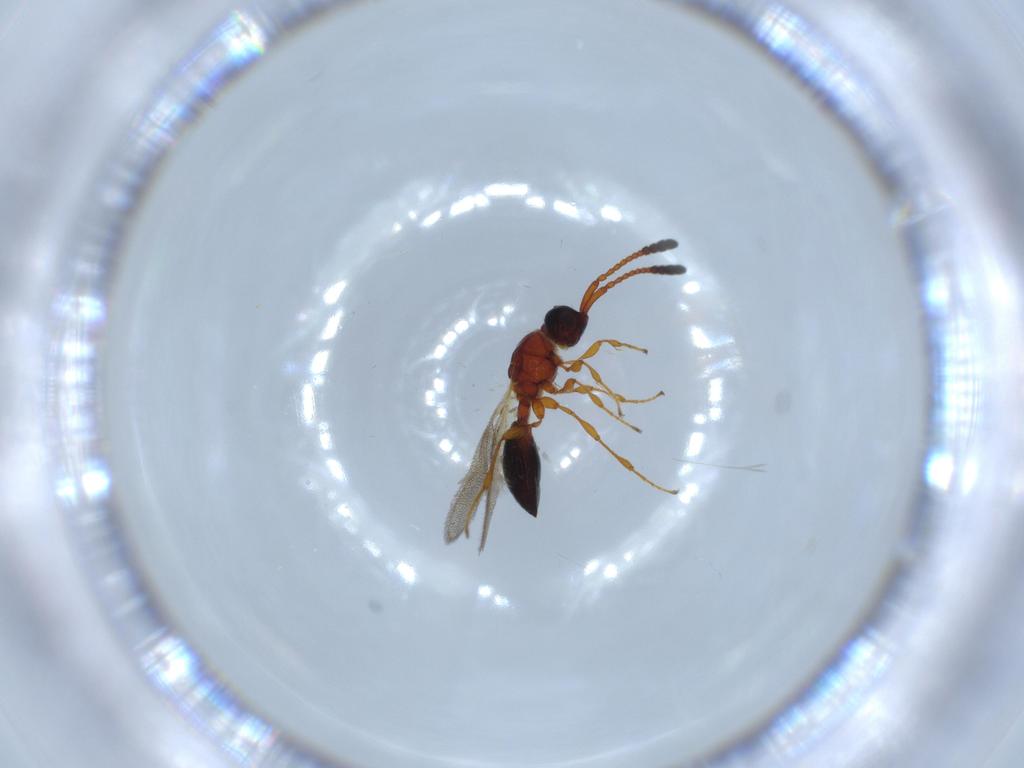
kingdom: Animalia
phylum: Arthropoda
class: Insecta
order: Hymenoptera
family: Diapriidae
